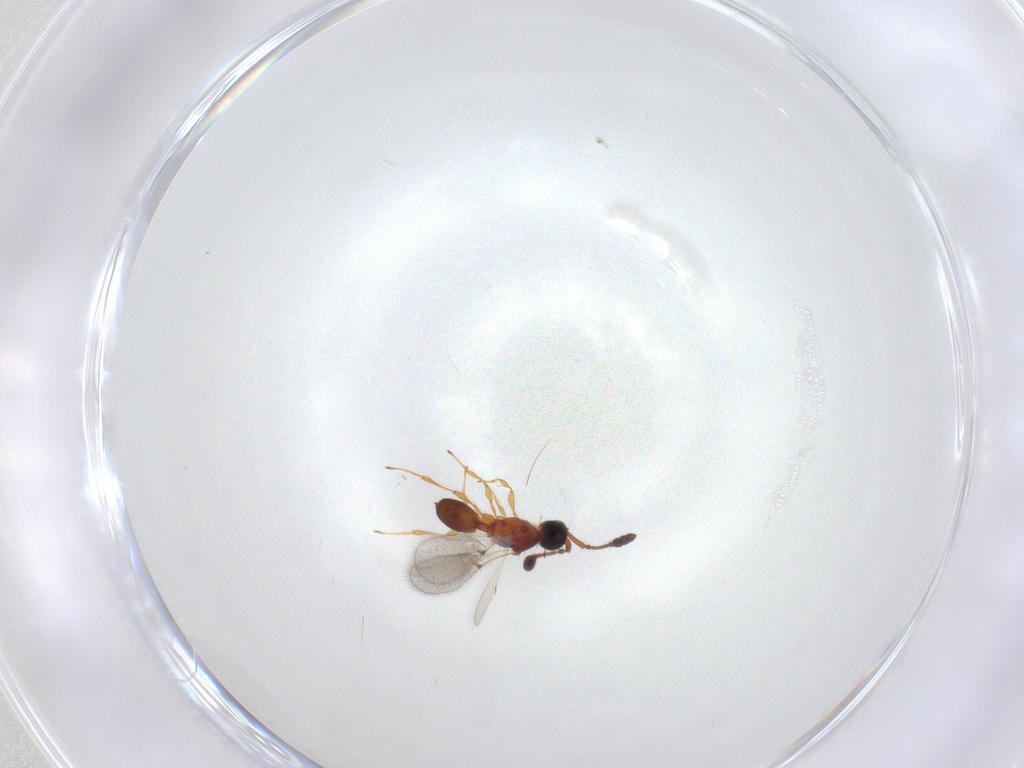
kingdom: Animalia
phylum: Arthropoda
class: Insecta
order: Hymenoptera
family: Diapriidae
